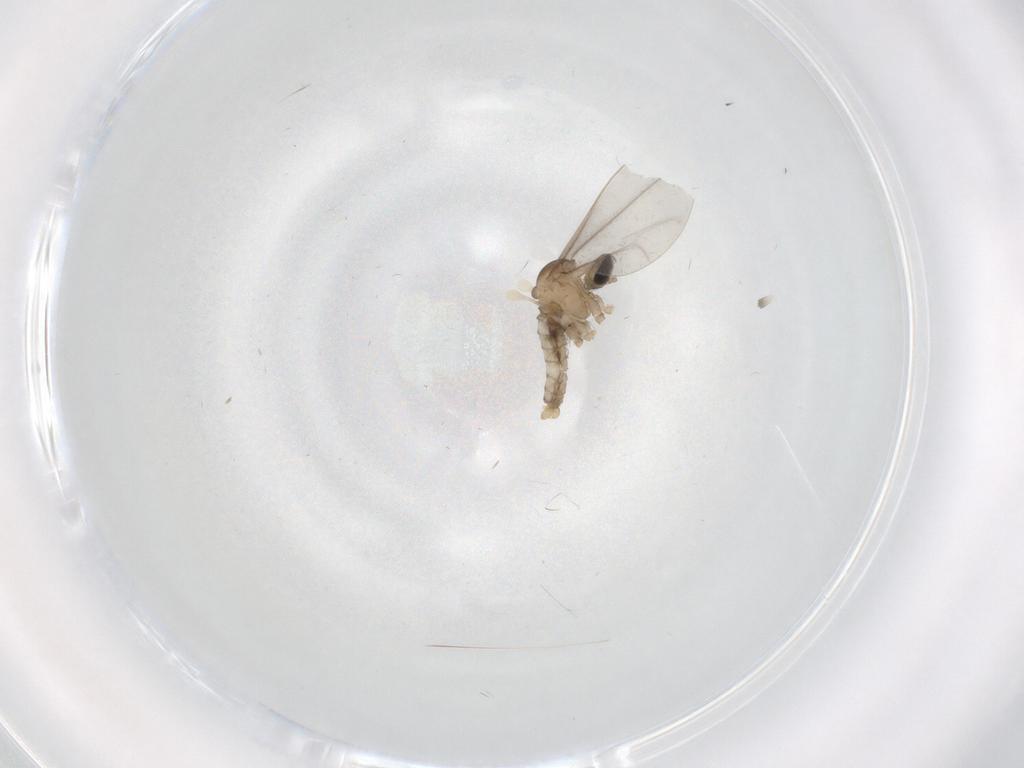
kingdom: Animalia
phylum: Arthropoda
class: Insecta
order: Diptera
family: Cecidomyiidae
